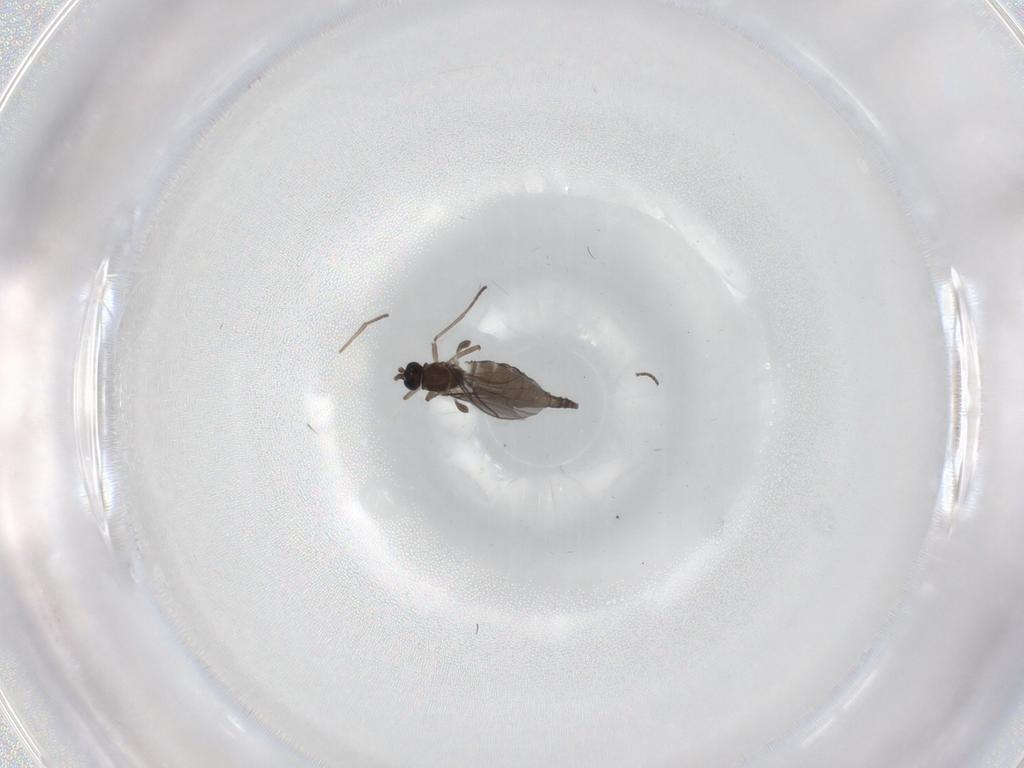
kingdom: Animalia
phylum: Arthropoda
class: Insecta
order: Diptera
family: Sciaridae
